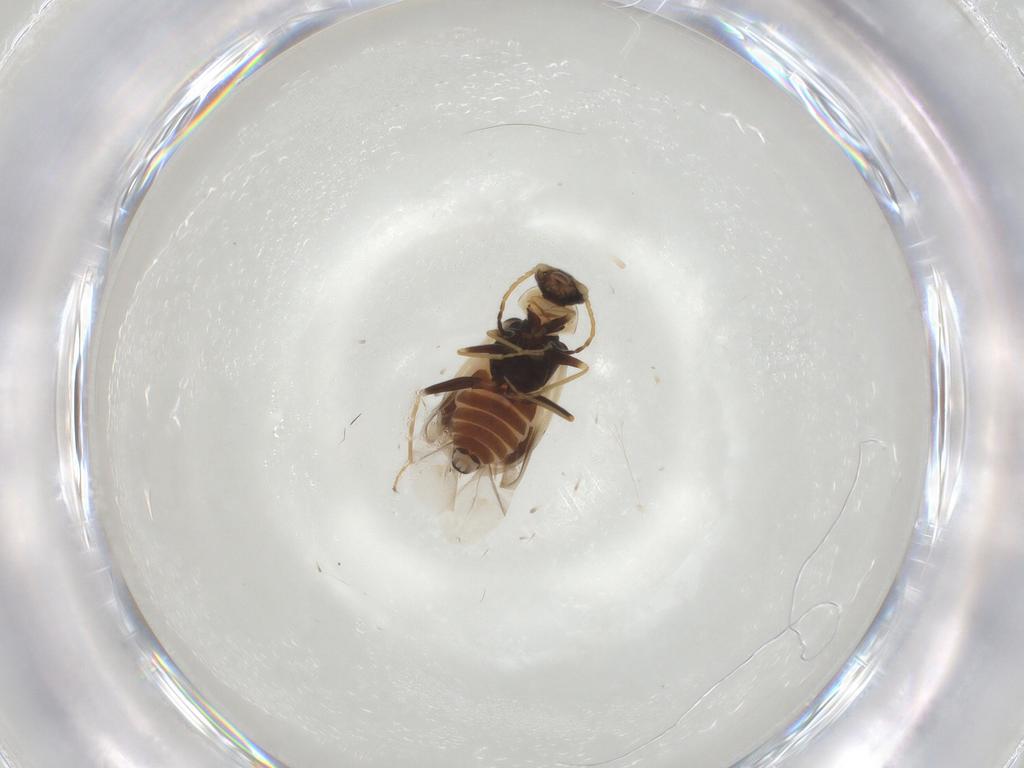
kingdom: Animalia
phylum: Arthropoda
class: Insecta
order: Coleoptera
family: Melyridae
